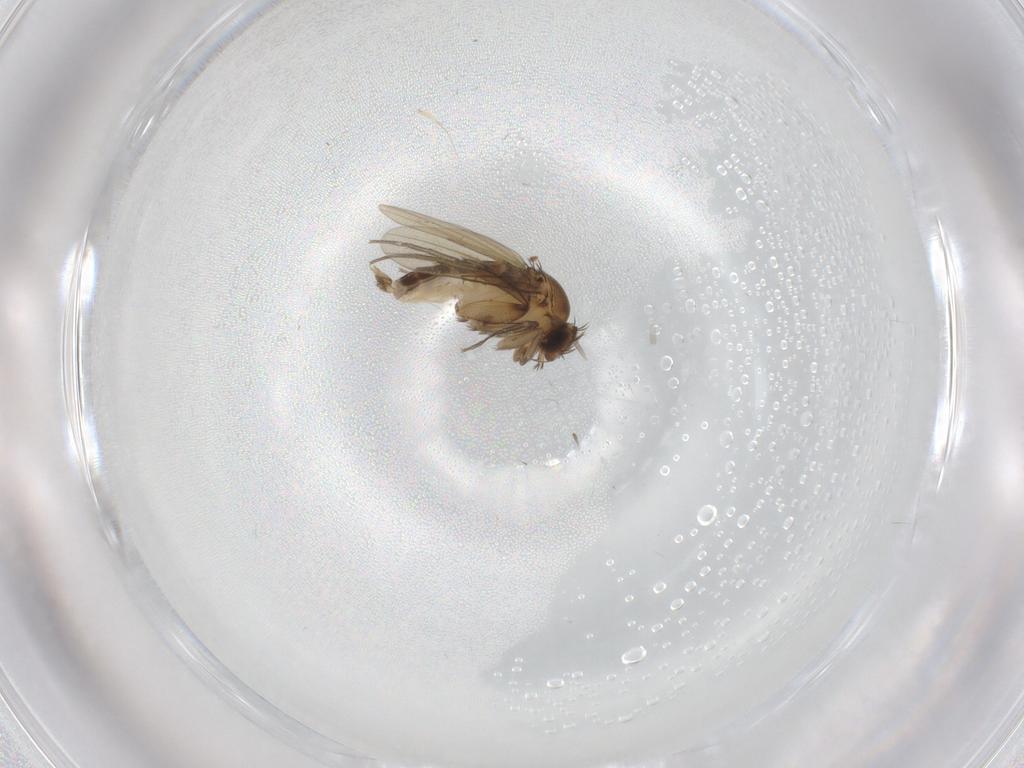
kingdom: Animalia
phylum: Arthropoda
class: Insecta
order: Diptera
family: Phoridae
